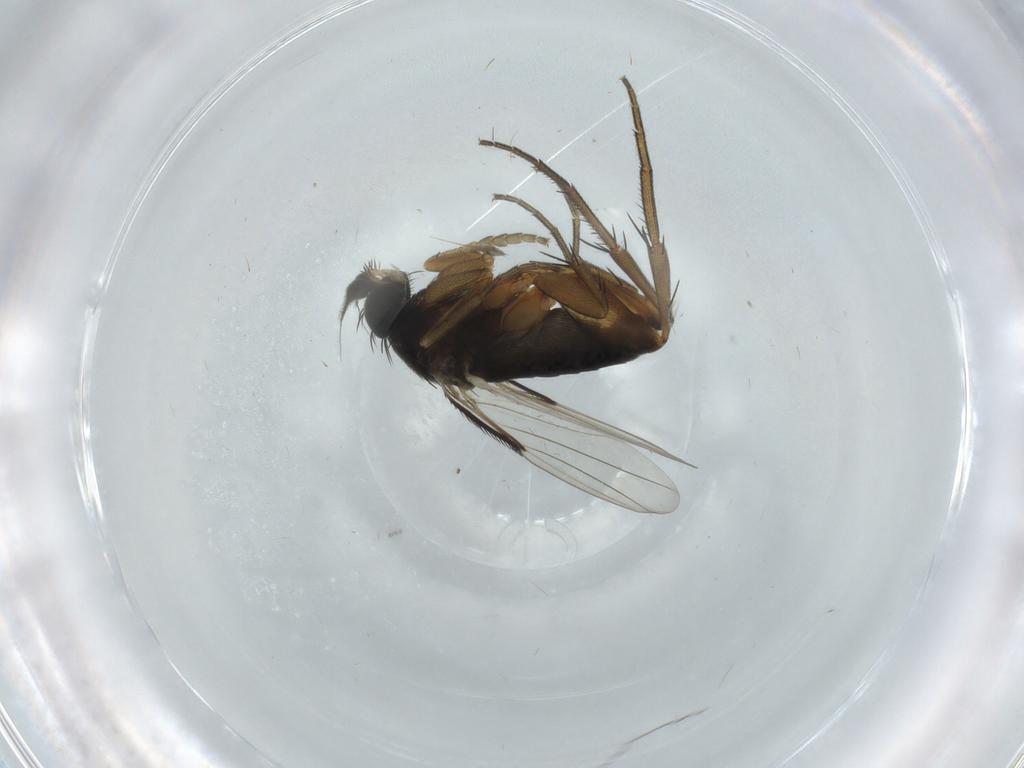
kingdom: Animalia
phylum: Arthropoda
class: Insecta
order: Diptera
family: Phoridae
